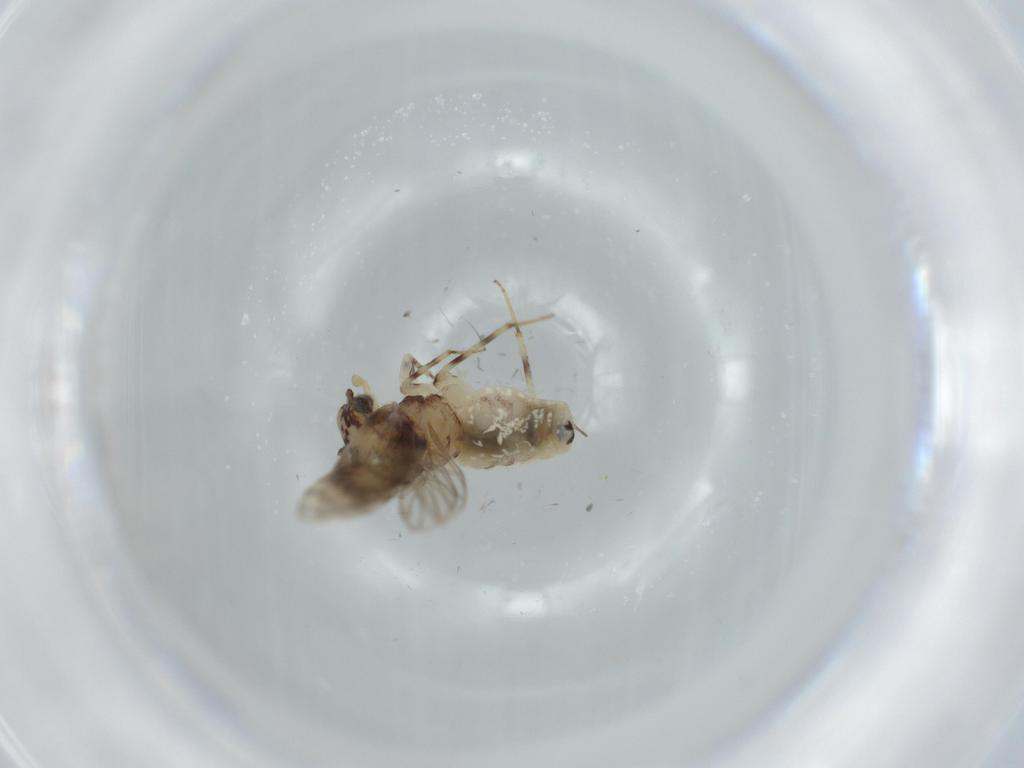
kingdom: Animalia
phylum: Arthropoda
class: Insecta
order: Psocodea
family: Lepidopsocidae
